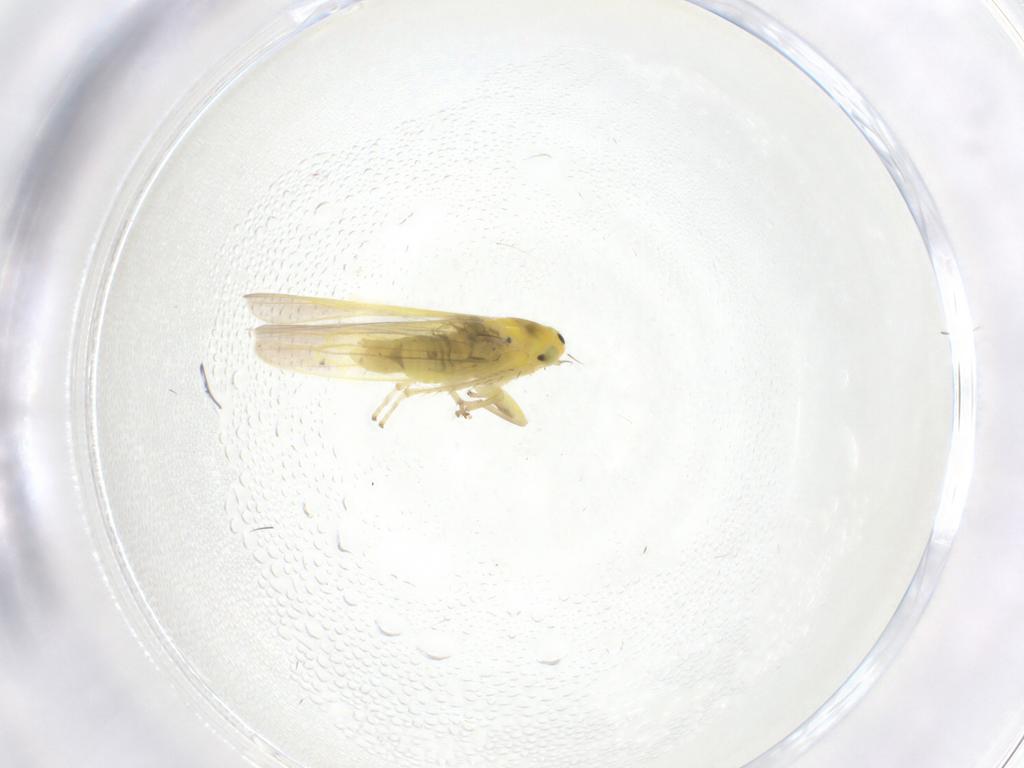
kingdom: Animalia
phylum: Arthropoda
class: Insecta
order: Hemiptera
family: Cicadellidae
